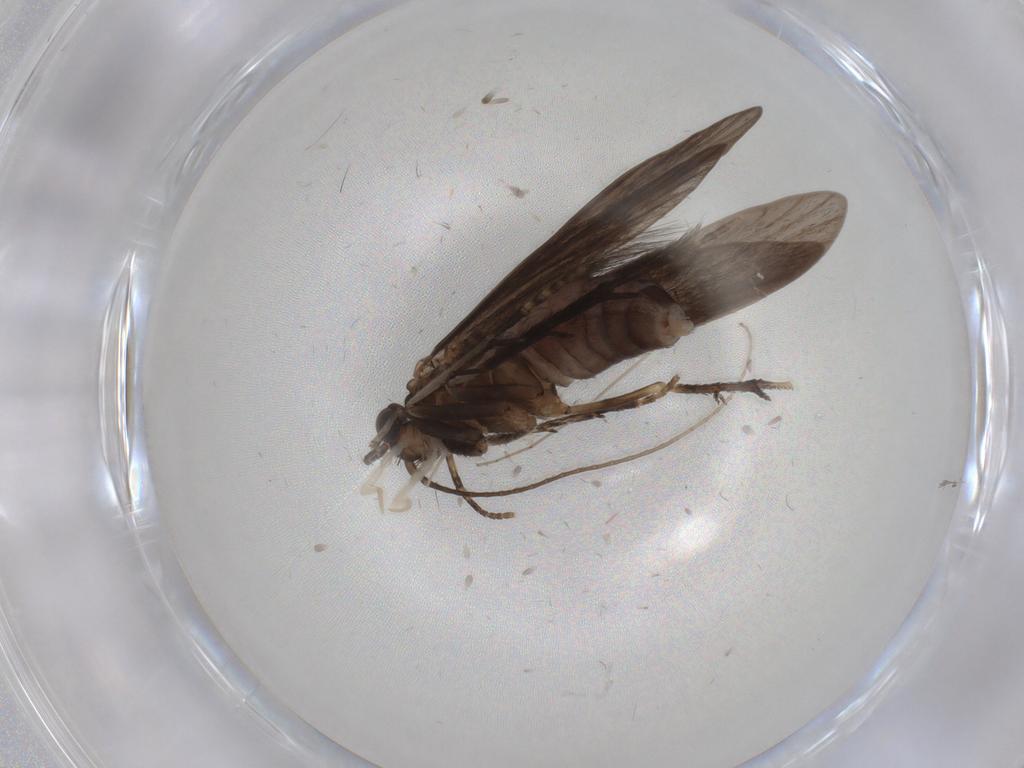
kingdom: Animalia
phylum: Arthropoda
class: Insecta
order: Trichoptera
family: Xiphocentronidae
